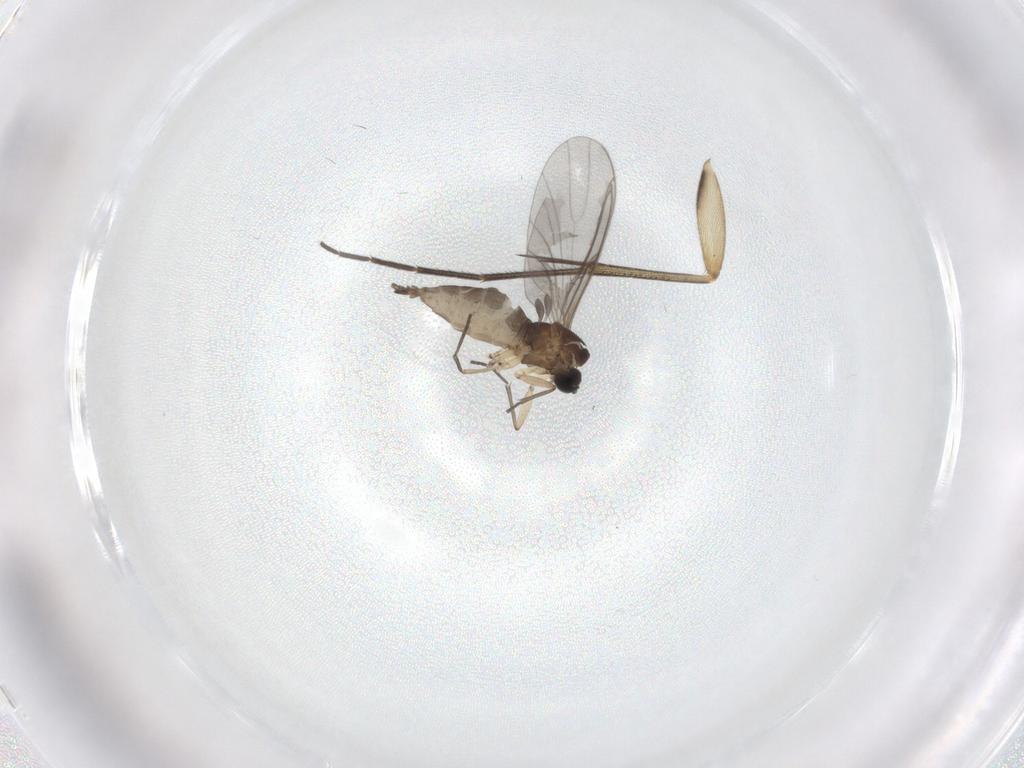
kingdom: Animalia
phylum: Arthropoda
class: Insecta
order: Diptera
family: Sciaridae
